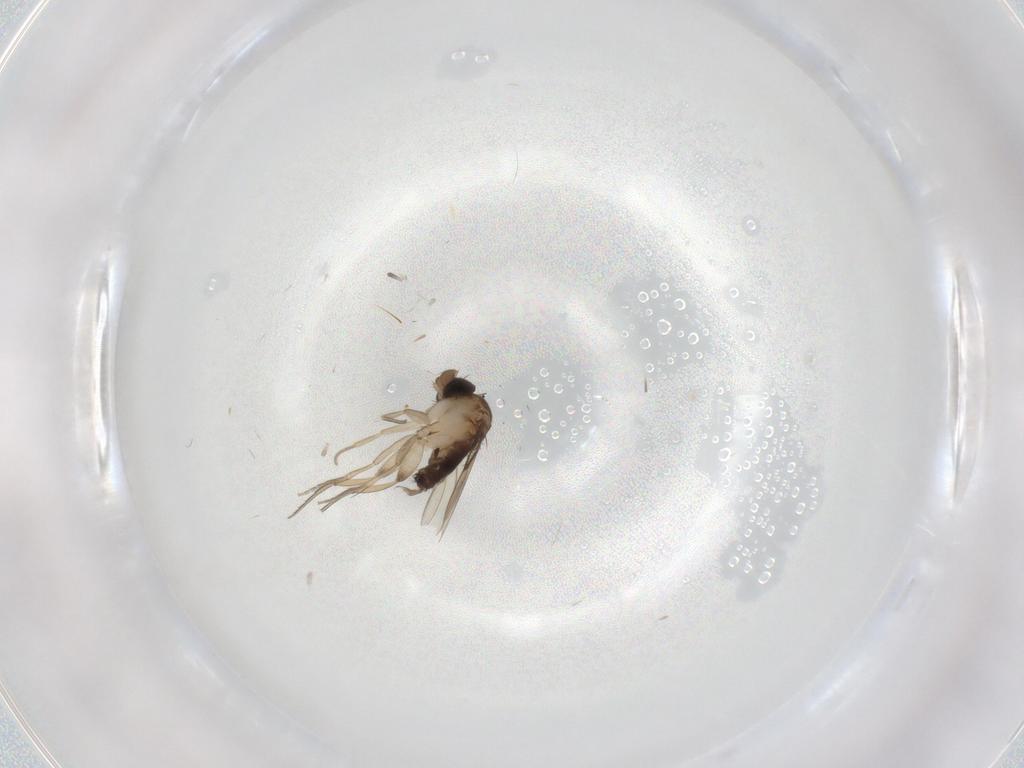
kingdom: Animalia
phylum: Arthropoda
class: Insecta
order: Diptera
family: Phoridae
